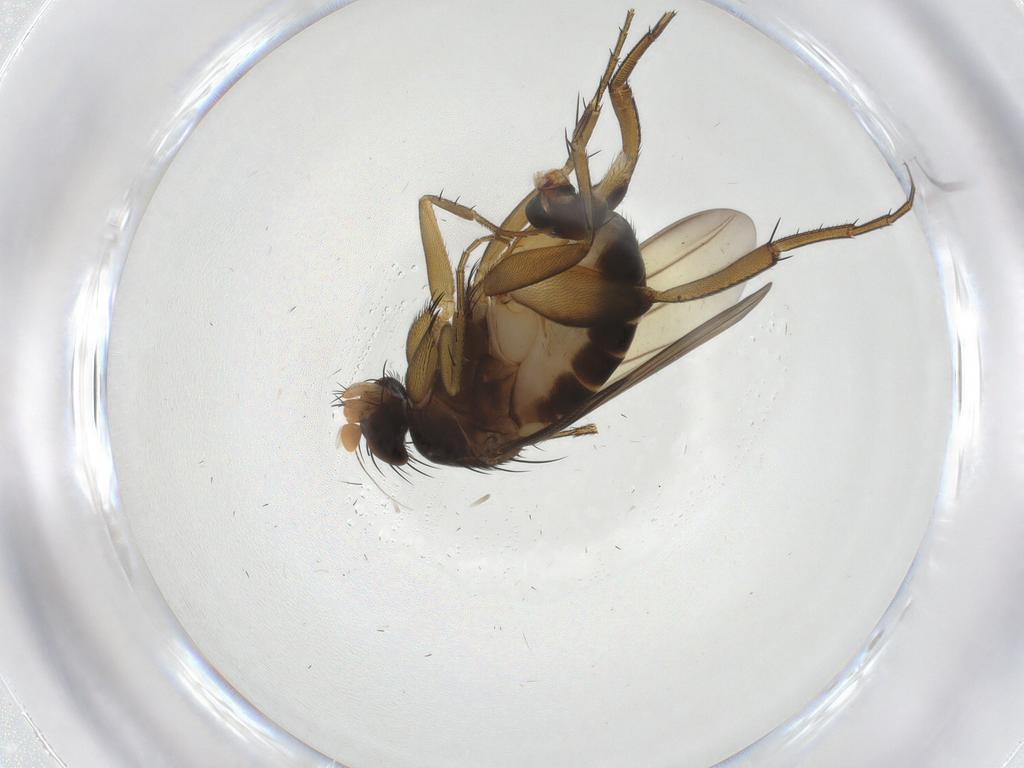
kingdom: Animalia
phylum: Arthropoda
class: Insecta
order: Diptera
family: Phoridae
